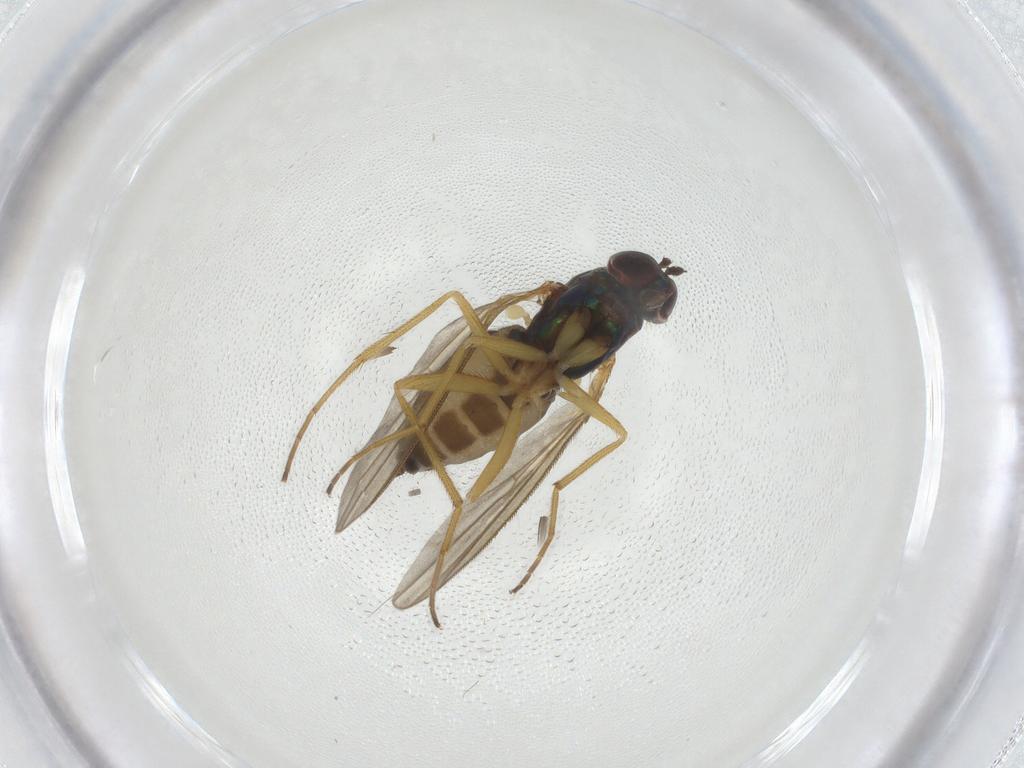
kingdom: Animalia
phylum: Arthropoda
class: Insecta
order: Diptera
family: Dolichopodidae
